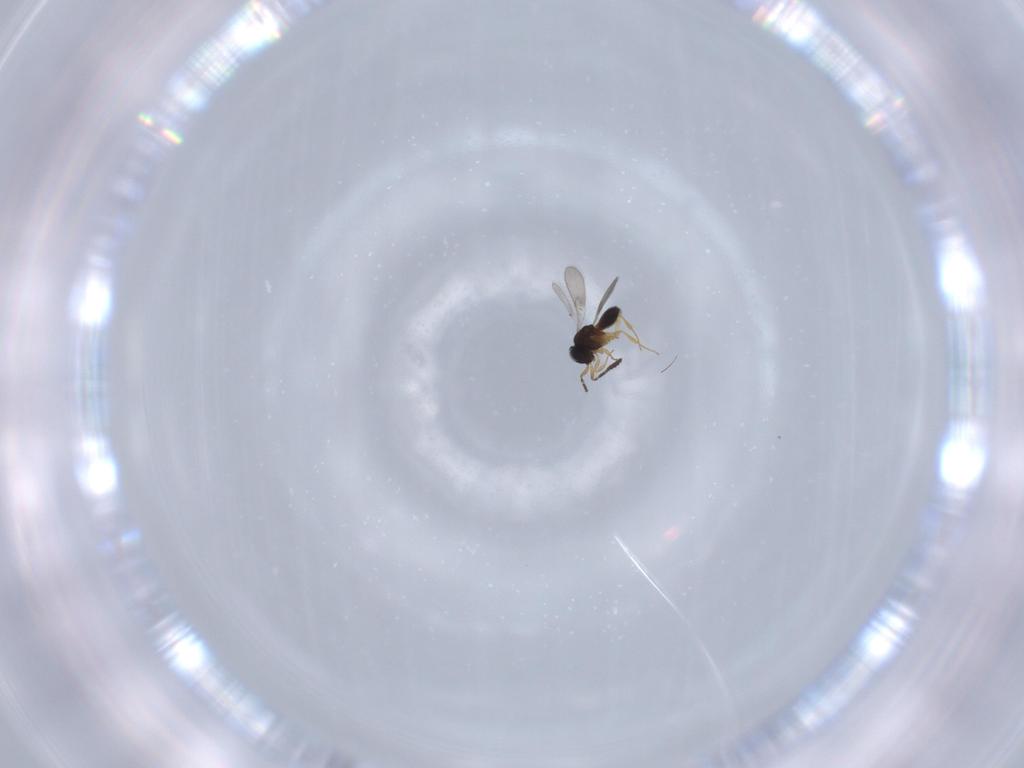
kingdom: Animalia
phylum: Arthropoda
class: Insecta
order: Hymenoptera
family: Scelionidae
